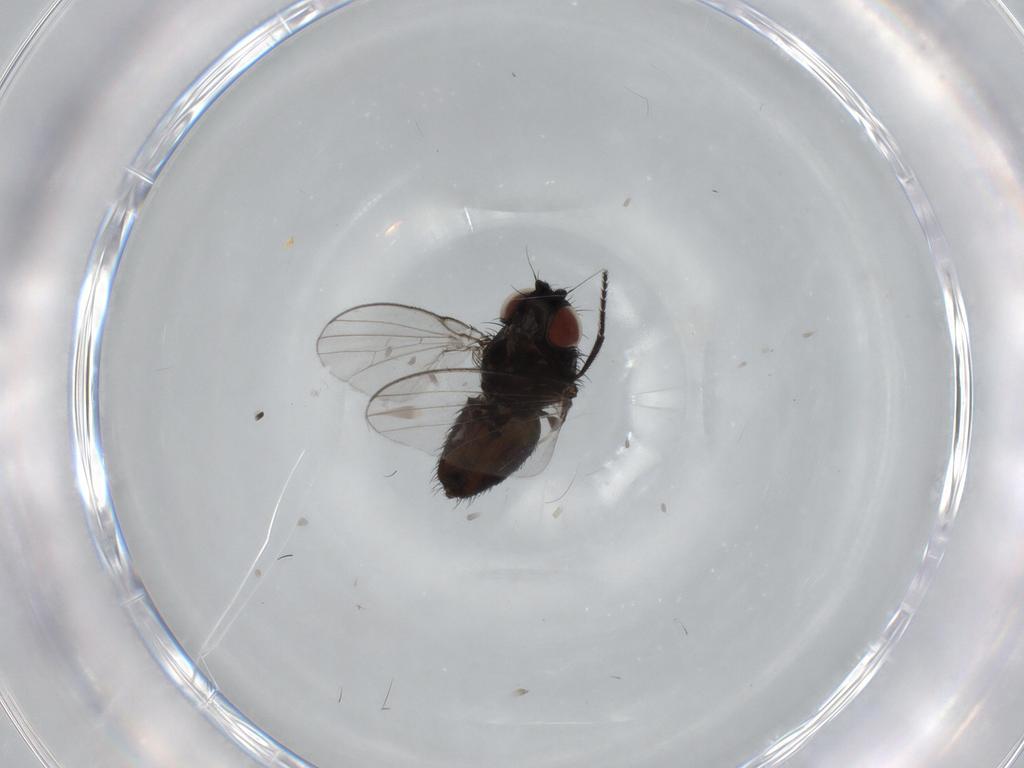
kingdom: Animalia
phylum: Arthropoda
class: Insecta
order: Diptera
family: Milichiidae
